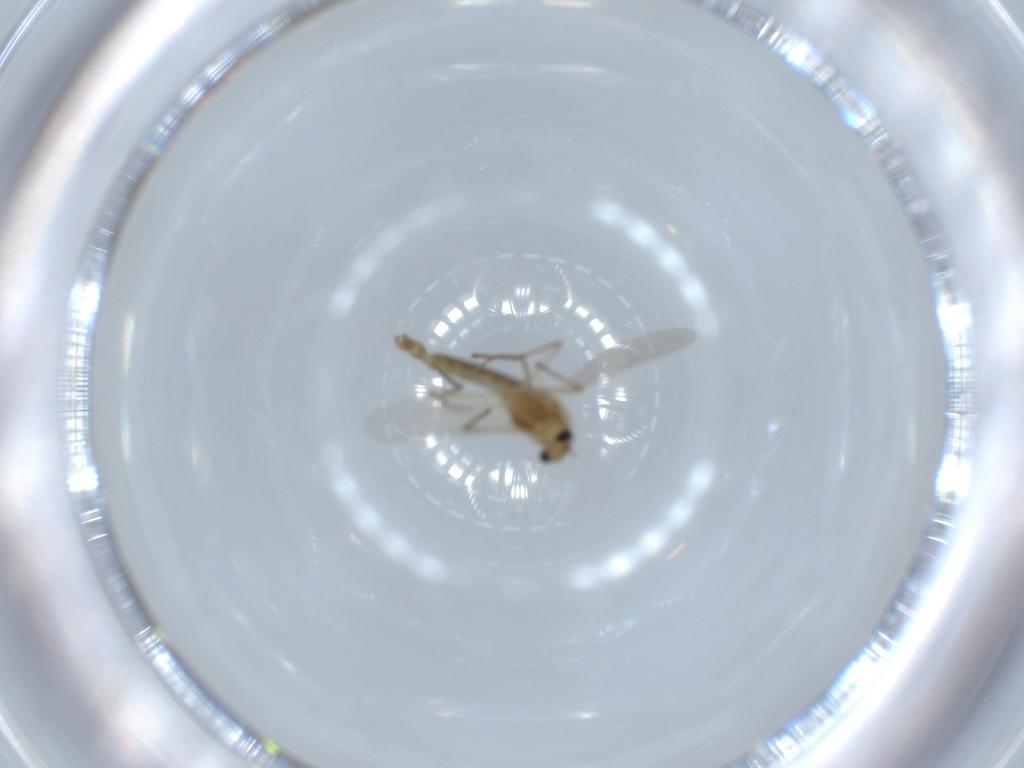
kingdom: Animalia
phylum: Arthropoda
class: Insecta
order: Diptera
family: Chironomidae
